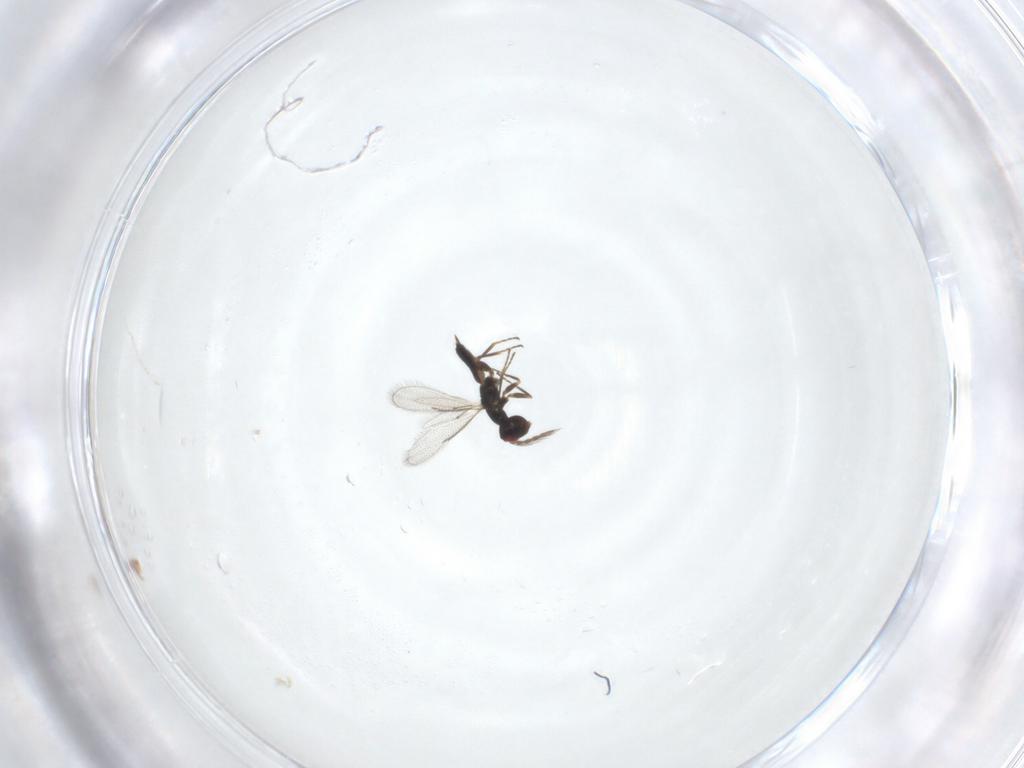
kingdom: Animalia
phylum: Arthropoda
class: Insecta
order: Hymenoptera
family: Eulophidae
